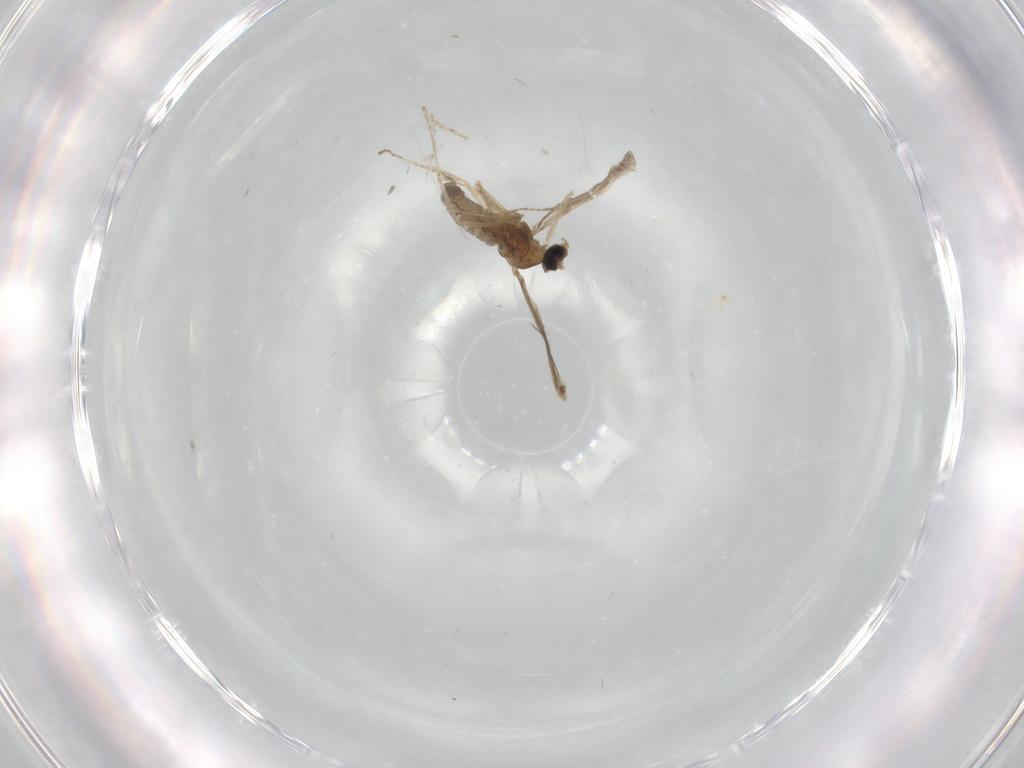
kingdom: Animalia
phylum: Arthropoda
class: Insecta
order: Diptera
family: Cecidomyiidae
